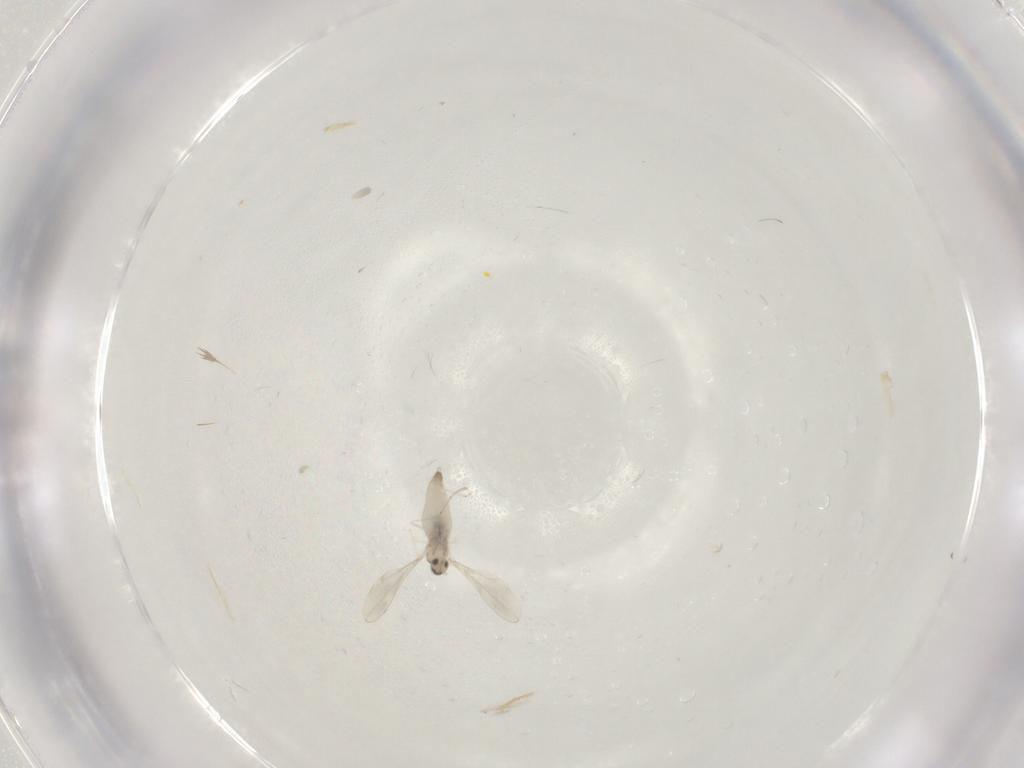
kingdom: Animalia
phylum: Arthropoda
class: Insecta
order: Diptera
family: Cecidomyiidae
